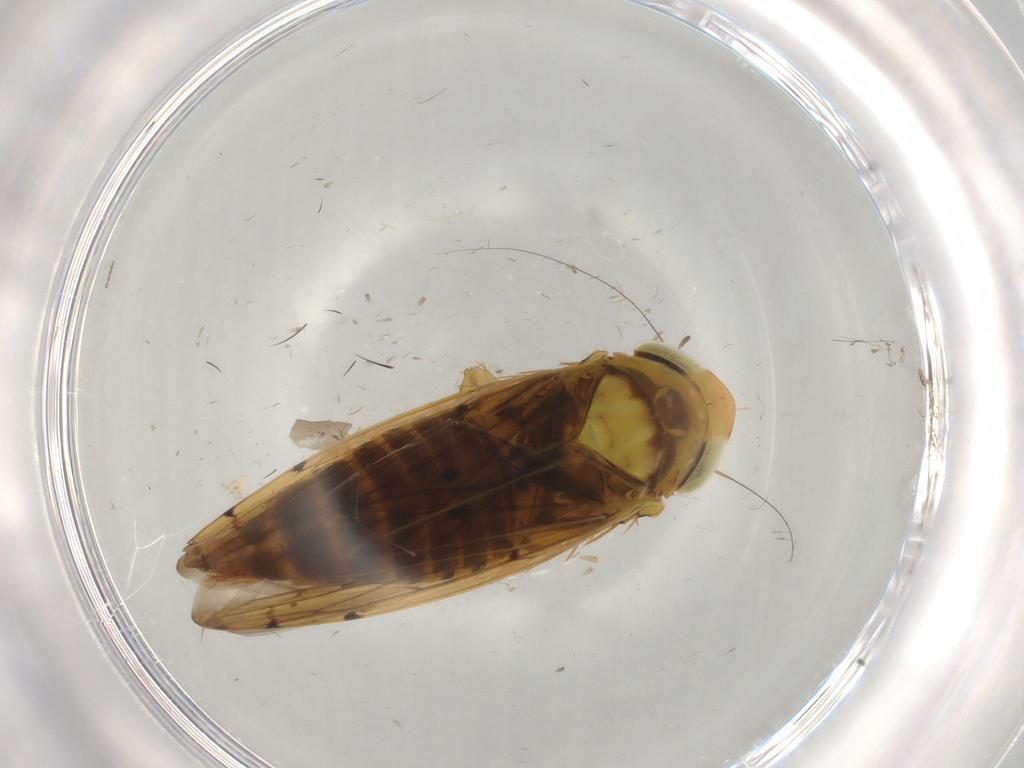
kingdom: Animalia
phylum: Arthropoda
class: Insecta
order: Hemiptera
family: Cicadellidae
